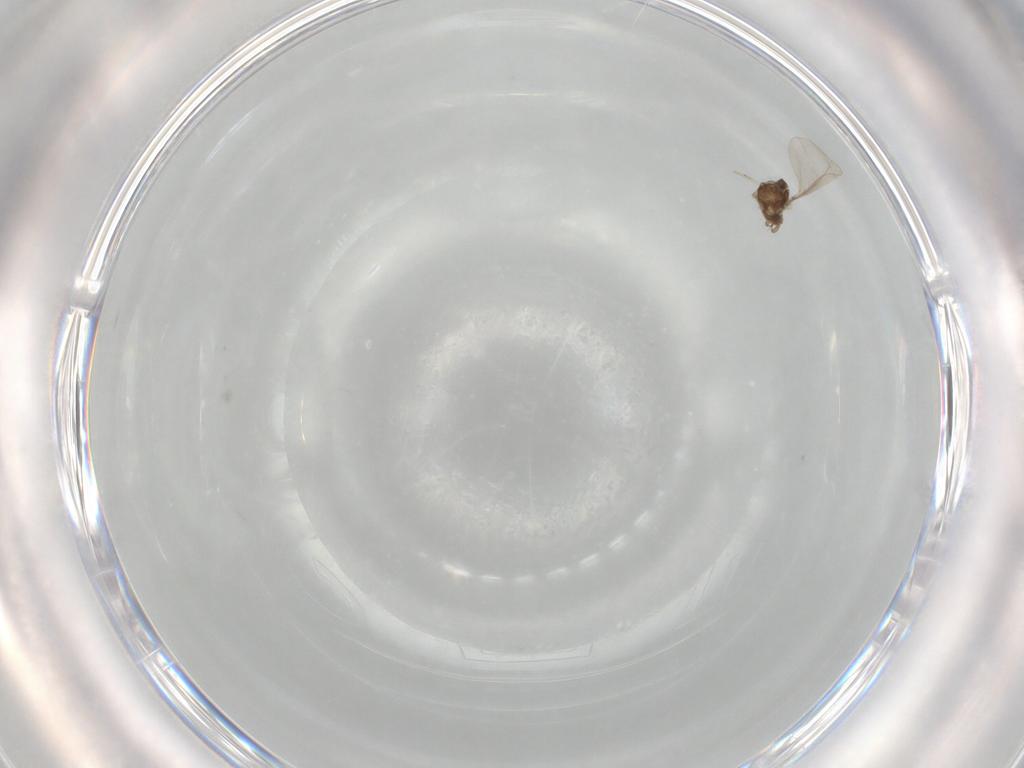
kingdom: Animalia
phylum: Arthropoda
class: Insecta
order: Diptera
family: Cecidomyiidae
